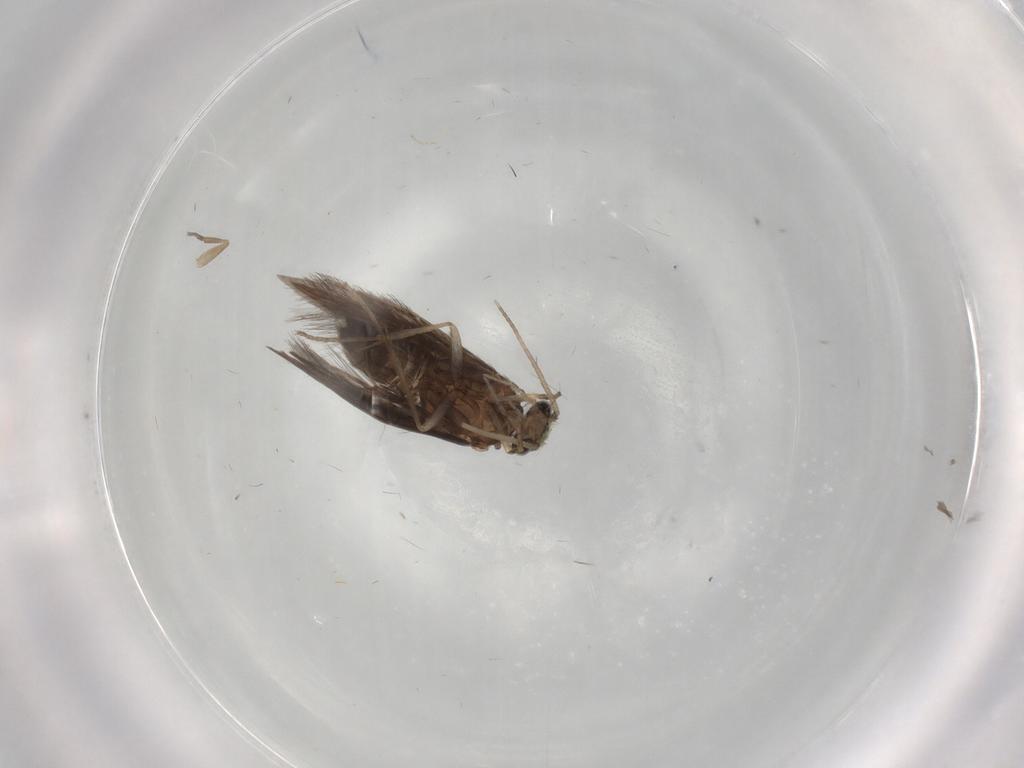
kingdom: Animalia
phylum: Arthropoda
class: Insecta
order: Trichoptera
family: Hydroptilidae
